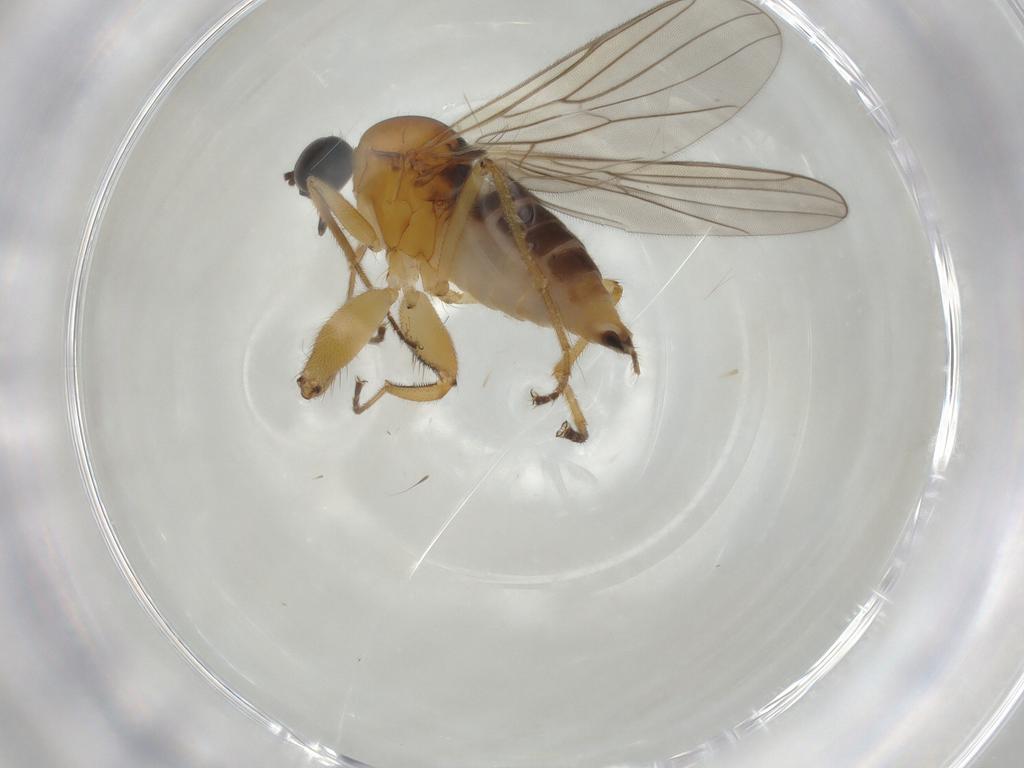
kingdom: Animalia
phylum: Arthropoda
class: Insecta
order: Diptera
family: Hybotidae
